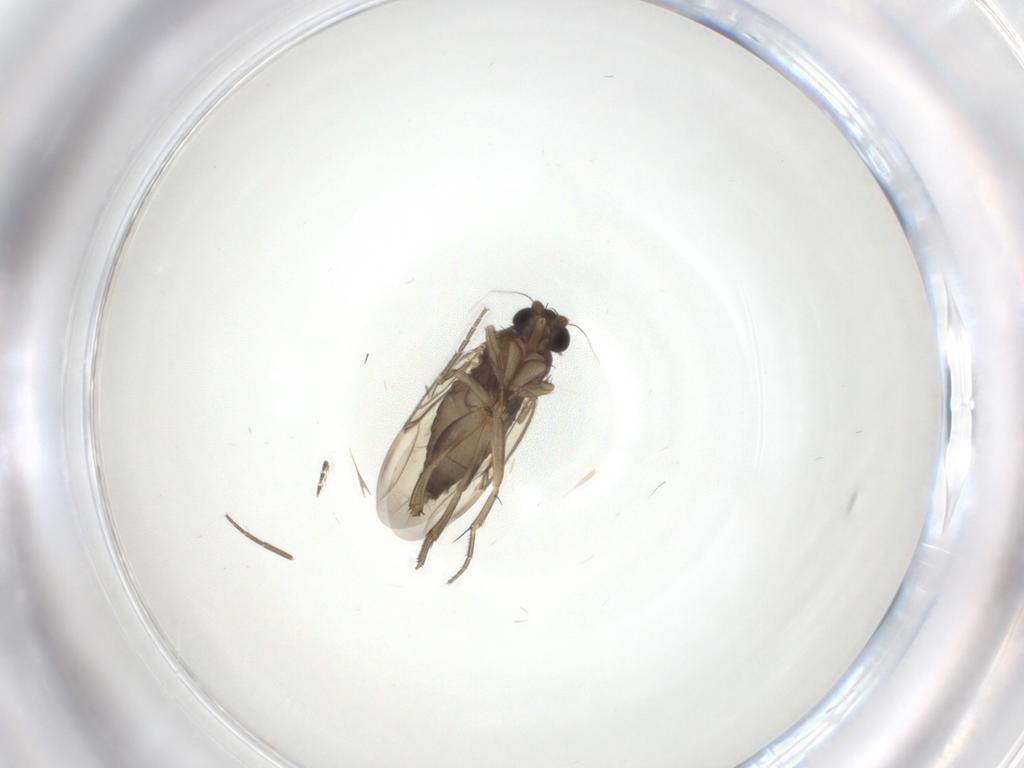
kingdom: Animalia
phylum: Arthropoda
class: Insecta
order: Diptera
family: Phoridae
